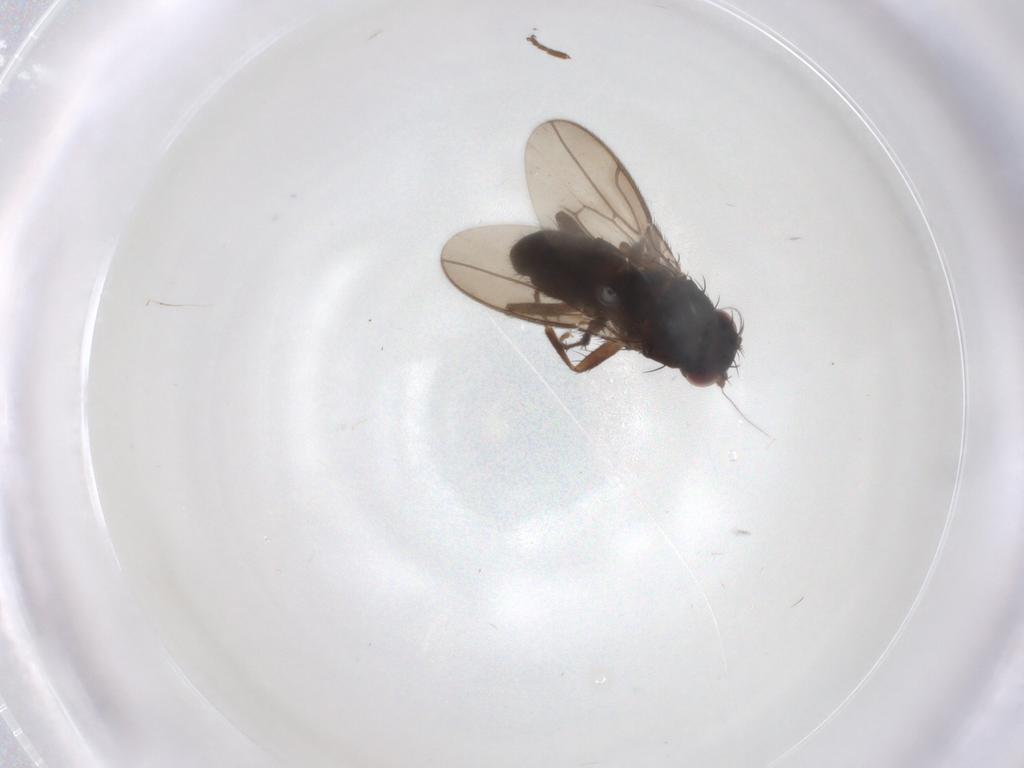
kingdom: Animalia
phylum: Arthropoda
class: Insecta
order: Diptera
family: Sphaeroceridae
